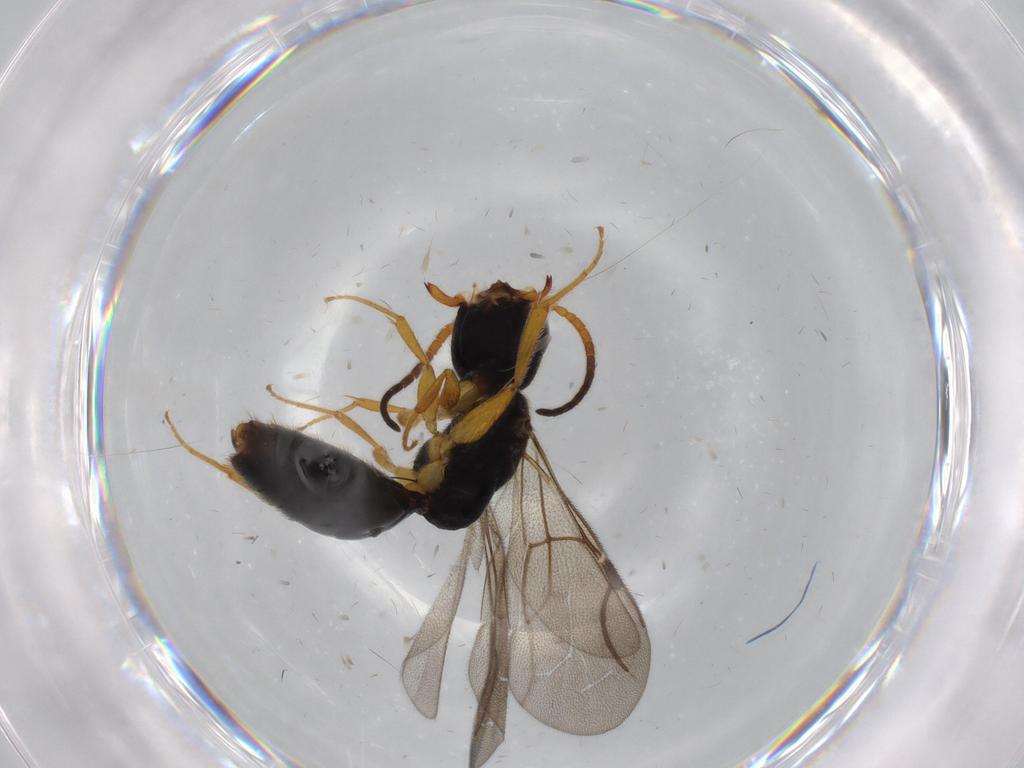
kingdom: Animalia
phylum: Arthropoda
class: Insecta
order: Hymenoptera
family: Bethylidae
